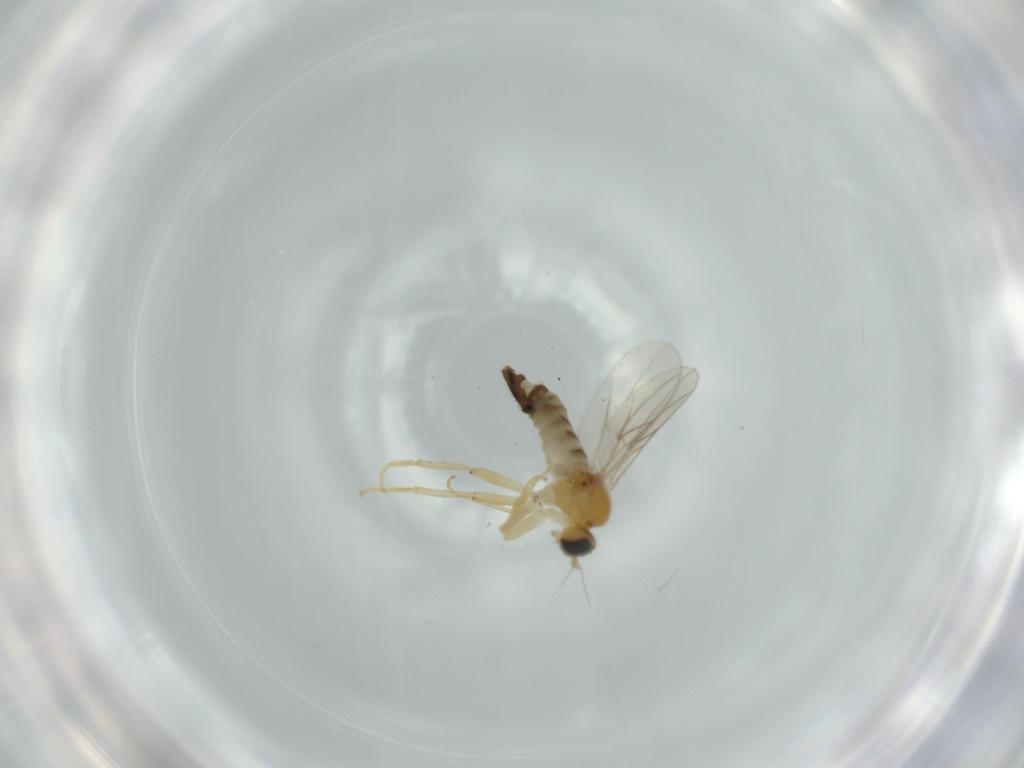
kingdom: Animalia
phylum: Arthropoda
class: Insecta
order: Diptera
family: Hybotidae
